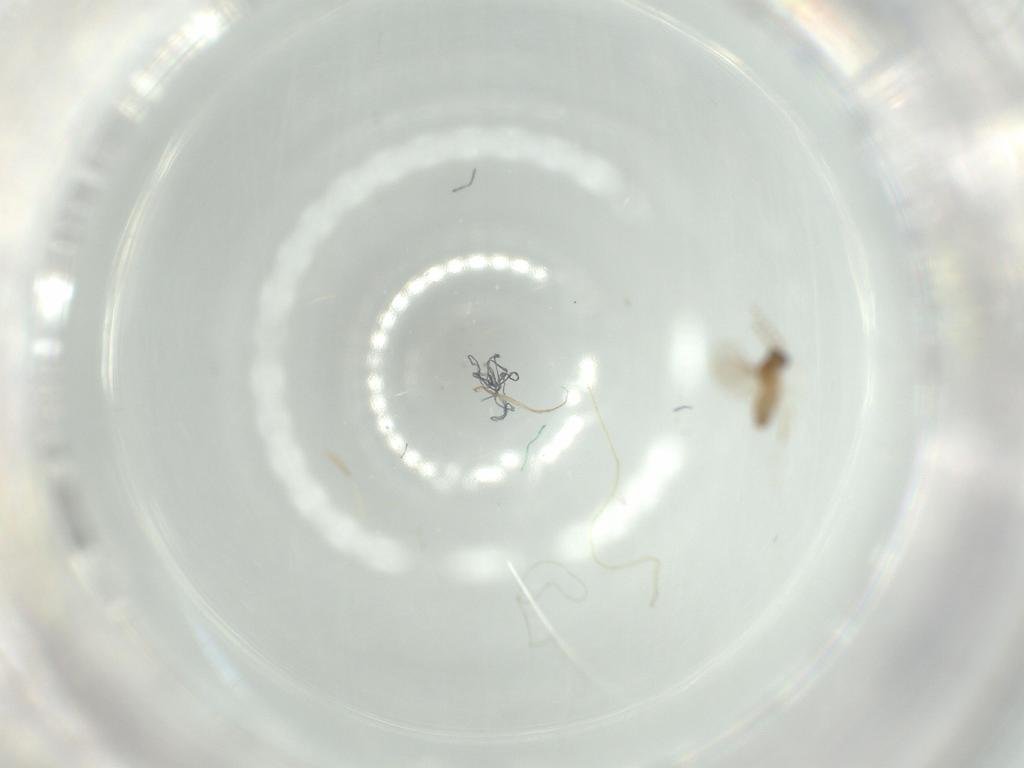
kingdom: Animalia
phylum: Arthropoda
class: Insecta
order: Diptera
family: Cecidomyiidae
